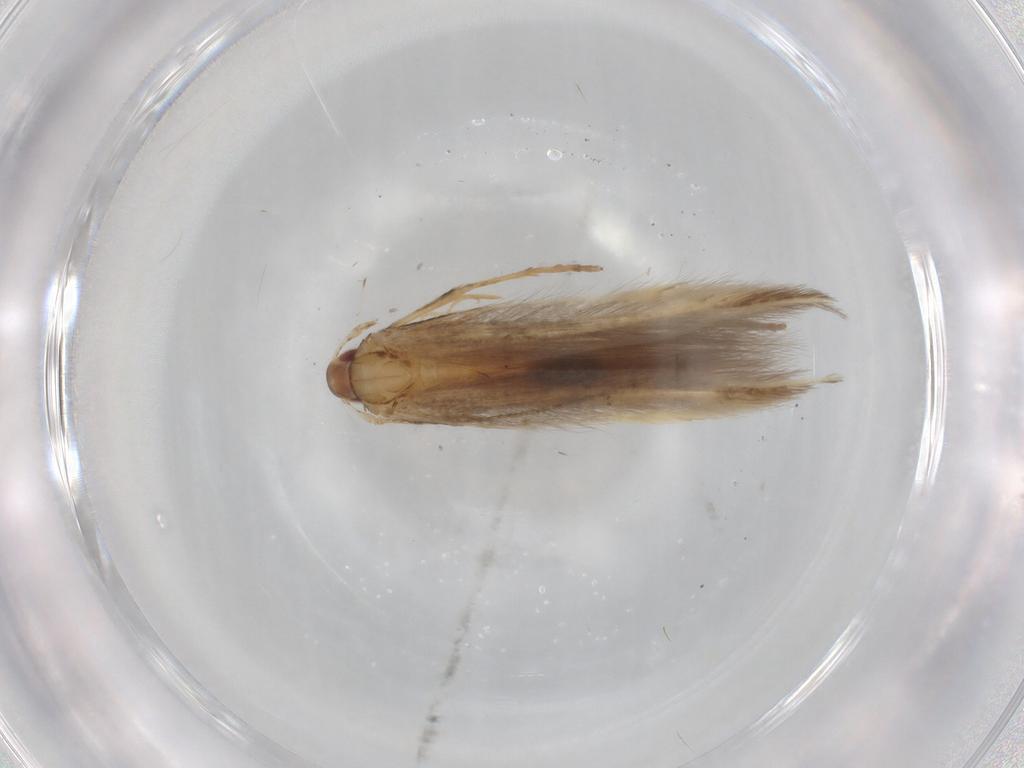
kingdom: Animalia
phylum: Arthropoda
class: Insecta
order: Lepidoptera
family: Cosmopterigidae
